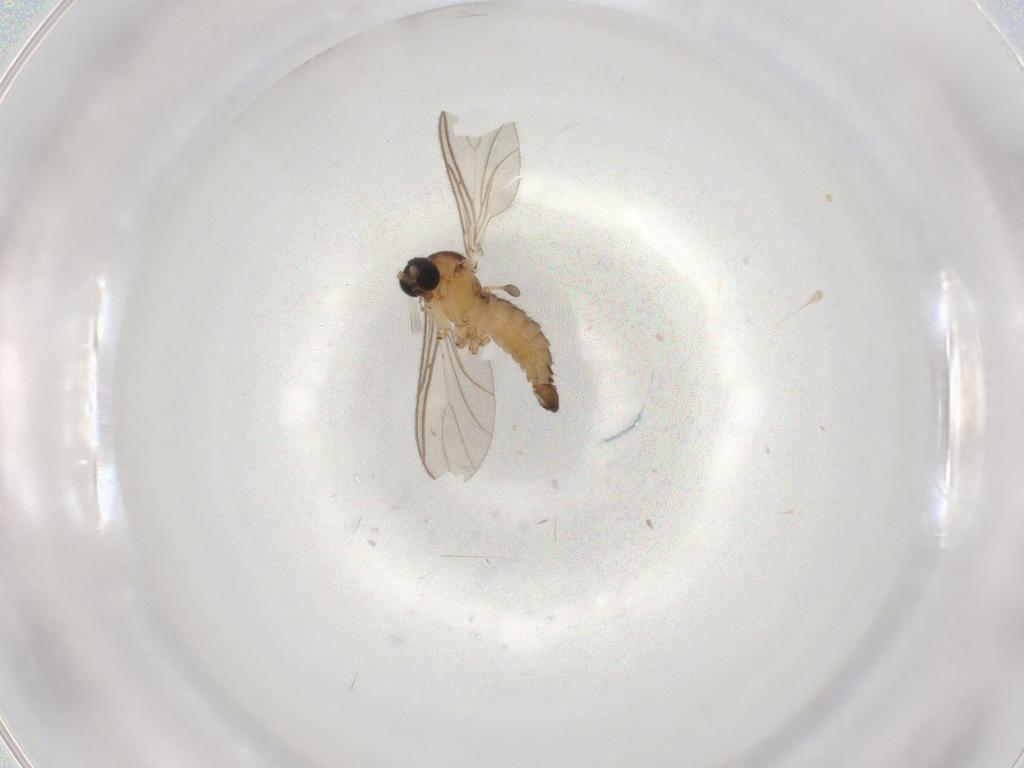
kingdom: Animalia
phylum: Arthropoda
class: Insecta
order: Diptera
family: Sciaridae
